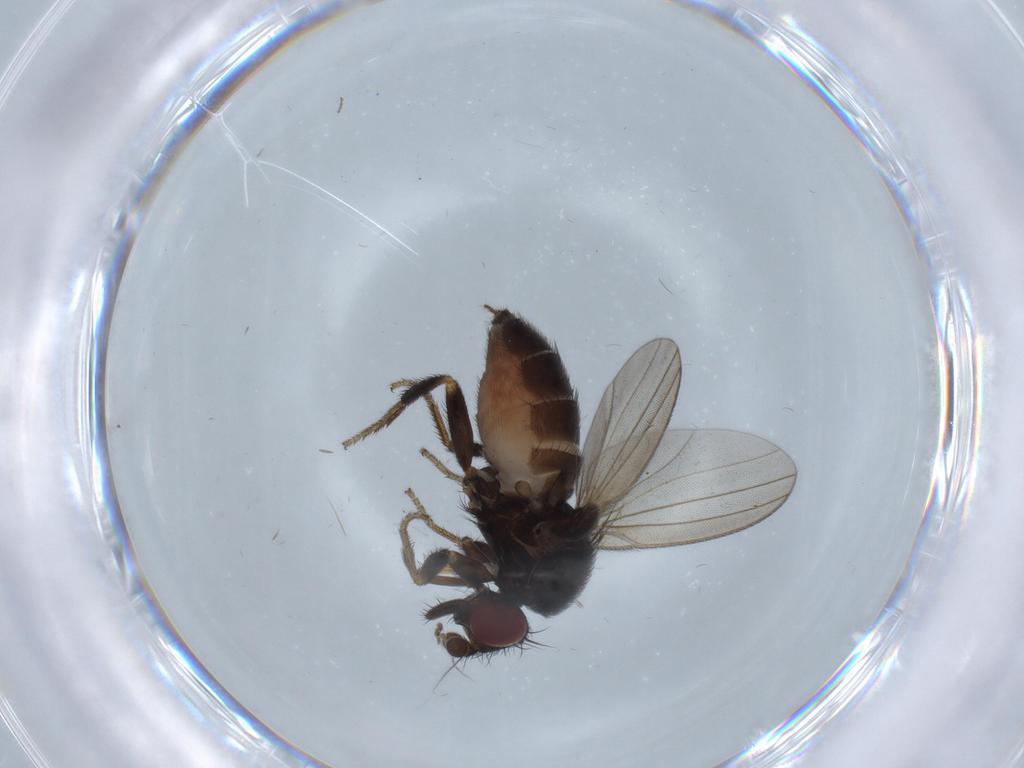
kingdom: Animalia
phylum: Arthropoda
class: Insecta
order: Diptera
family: Milichiidae
